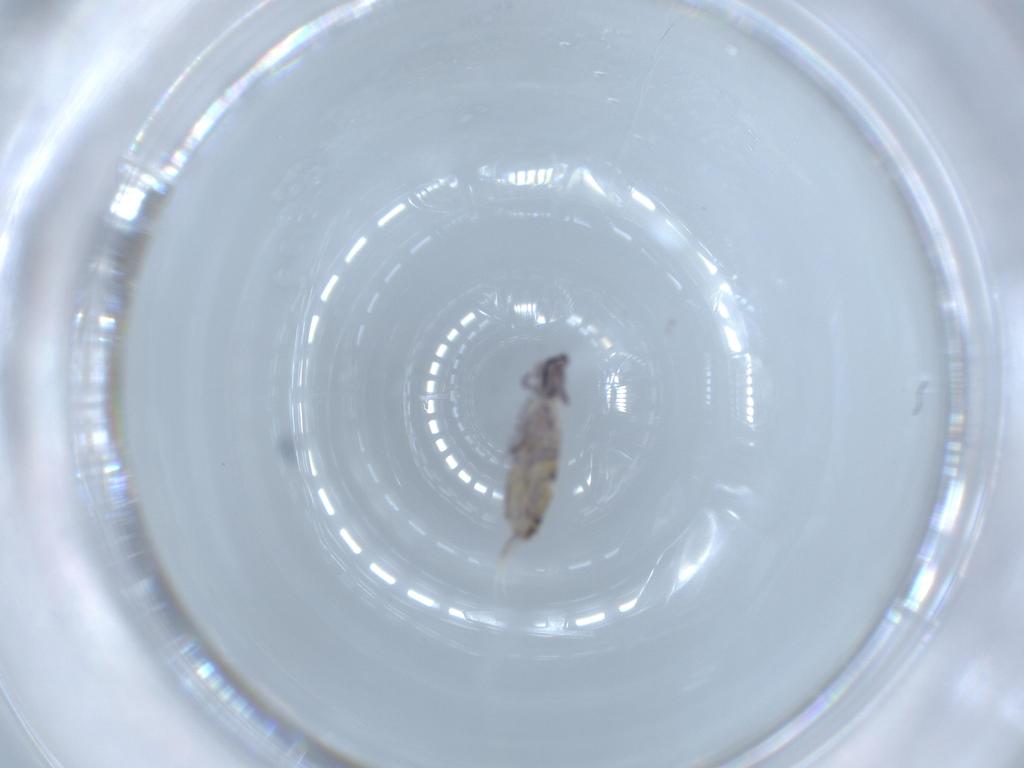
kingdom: Animalia
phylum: Arthropoda
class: Collembola
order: Entomobryomorpha
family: Entomobryidae
